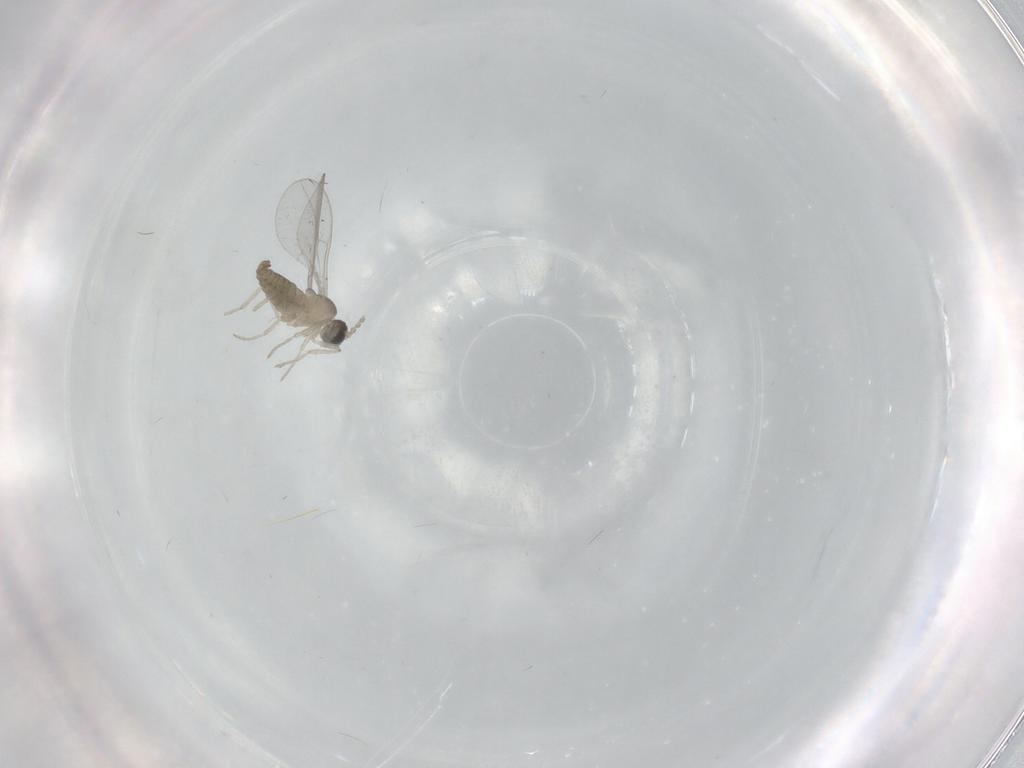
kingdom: Animalia
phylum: Arthropoda
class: Insecta
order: Diptera
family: Cecidomyiidae
